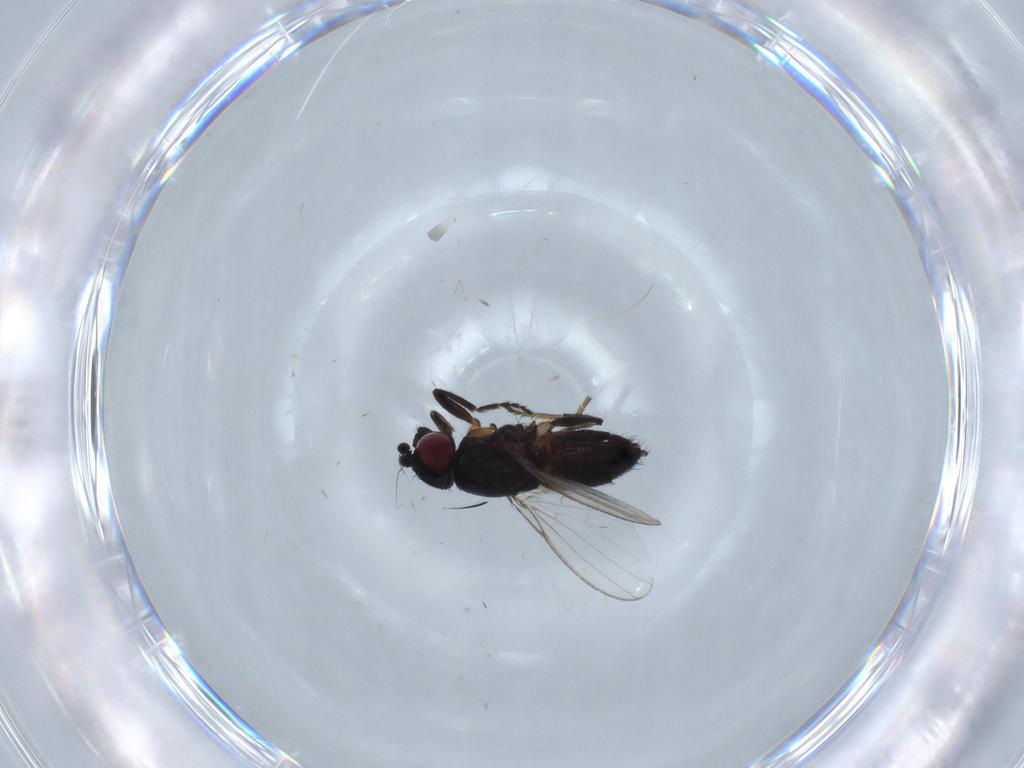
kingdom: Animalia
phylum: Arthropoda
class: Insecta
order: Diptera
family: Milichiidae
